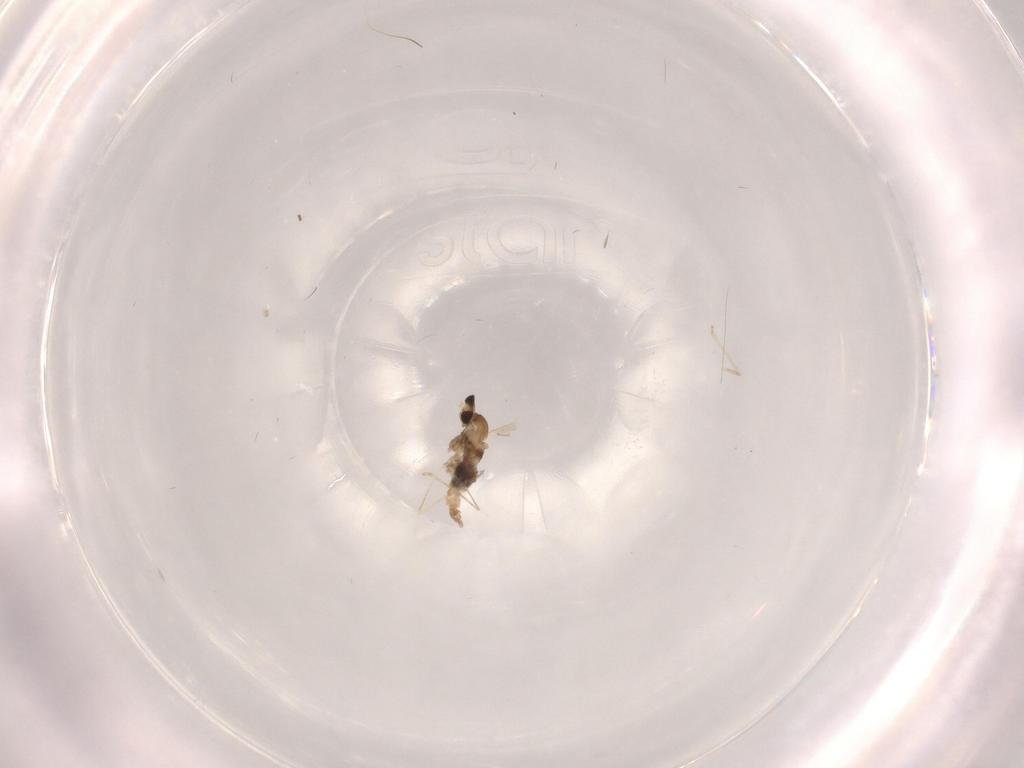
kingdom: Animalia
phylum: Arthropoda
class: Insecta
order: Diptera
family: Cecidomyiidae
